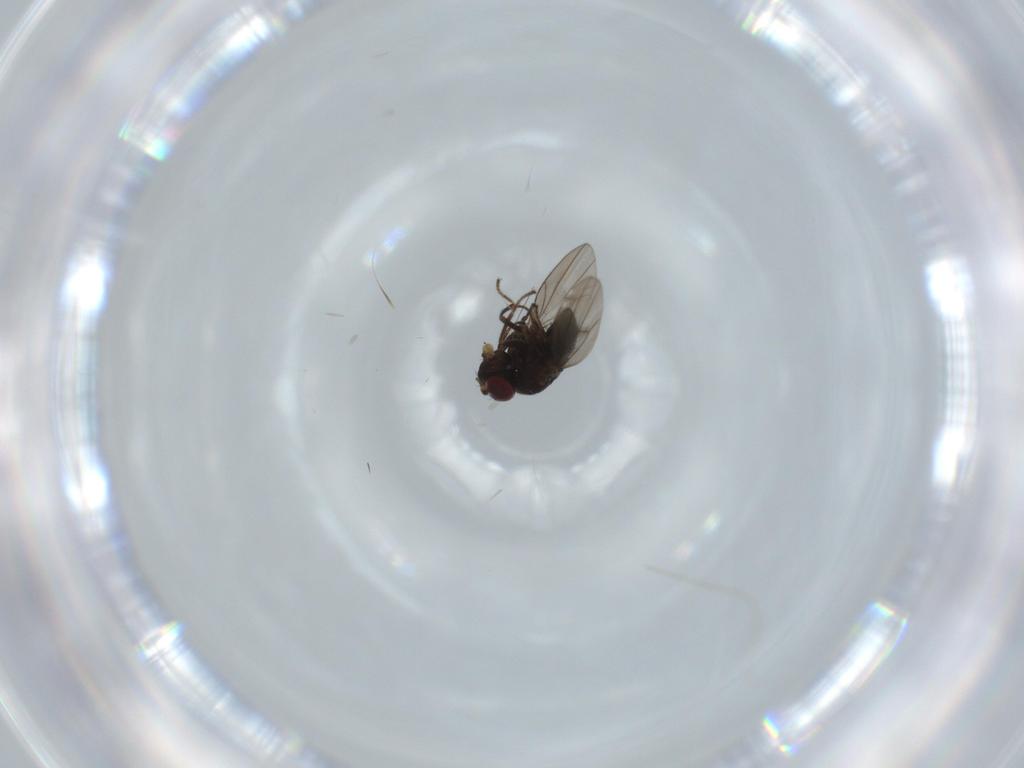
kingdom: Animalia
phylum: Arthropoda
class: Insecta
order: Diptera
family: Ephydridae
